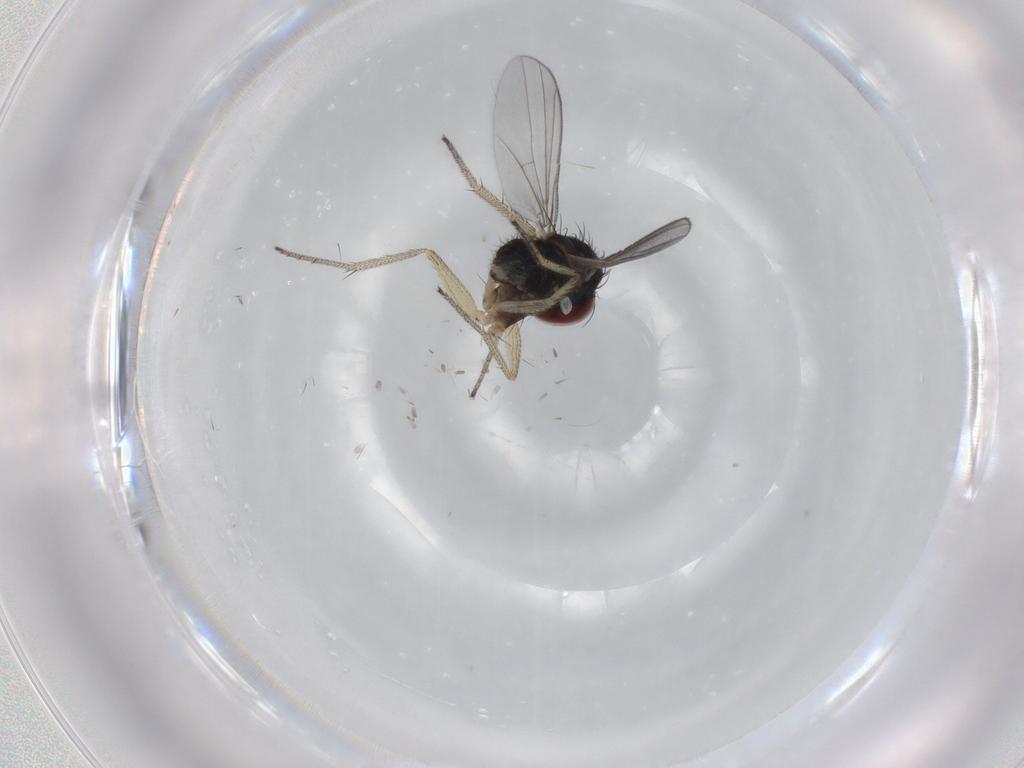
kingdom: Animalia
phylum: Arthropoda
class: Insecta
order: Diptera
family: Dolichopodidae
